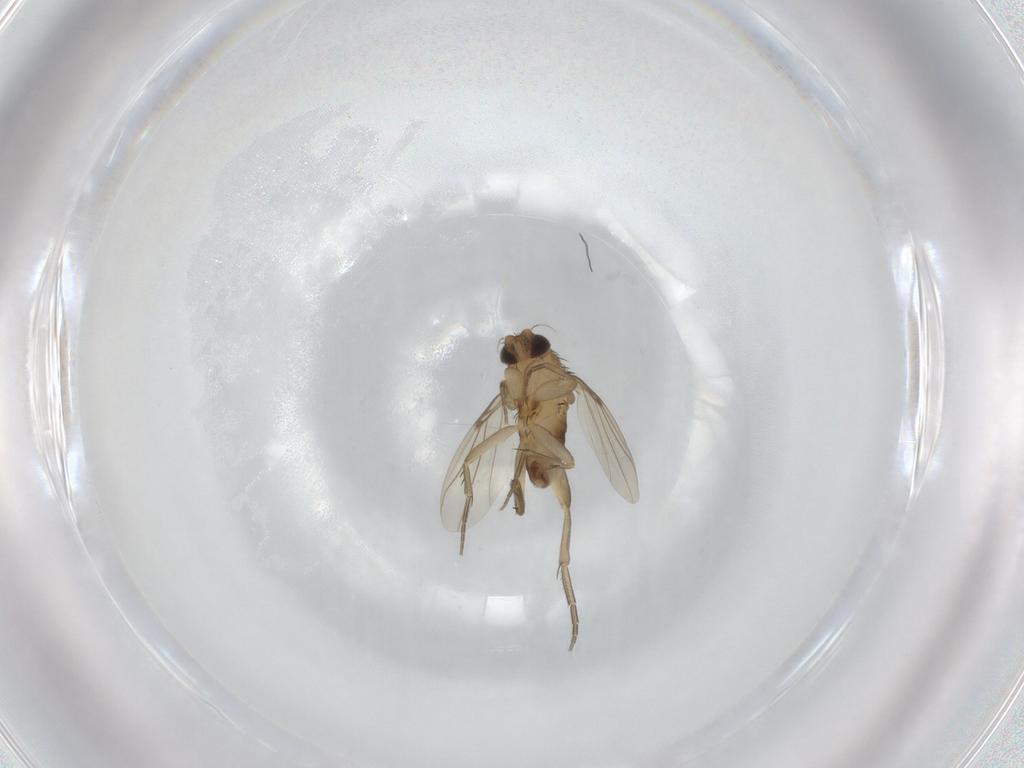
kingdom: Animalia
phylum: Arthropoda
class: Insecta
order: Diptera
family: Phoridae
